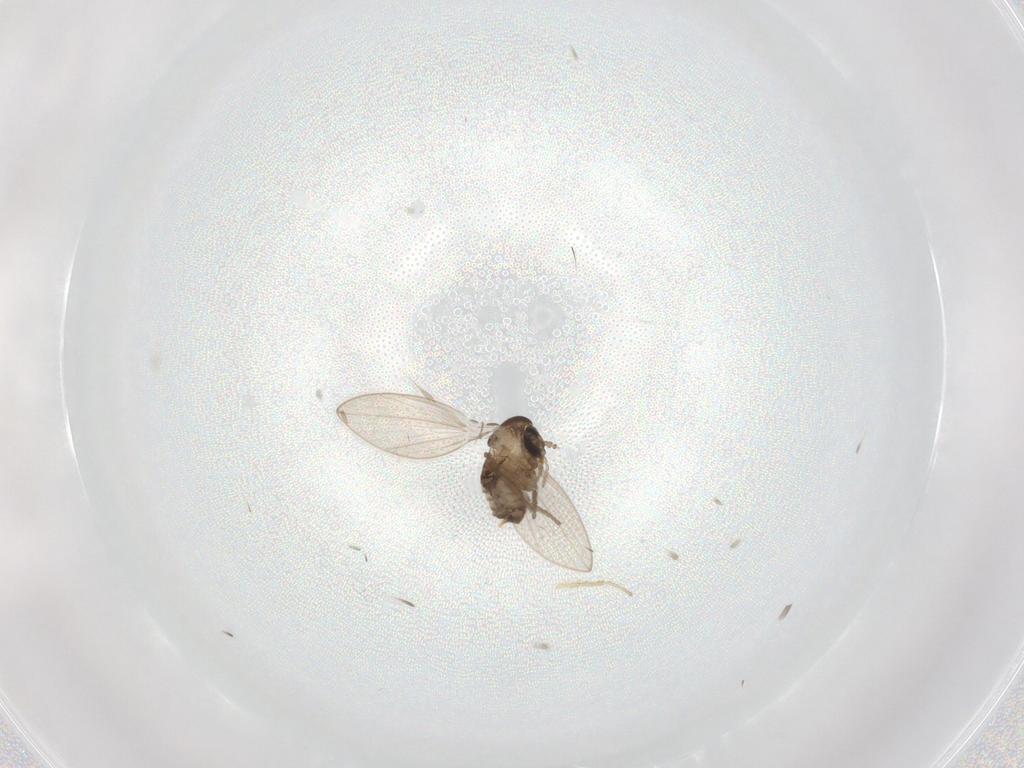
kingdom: Animalia
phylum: Arthropoda
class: Insecta
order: Diptera
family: Psychodidae
